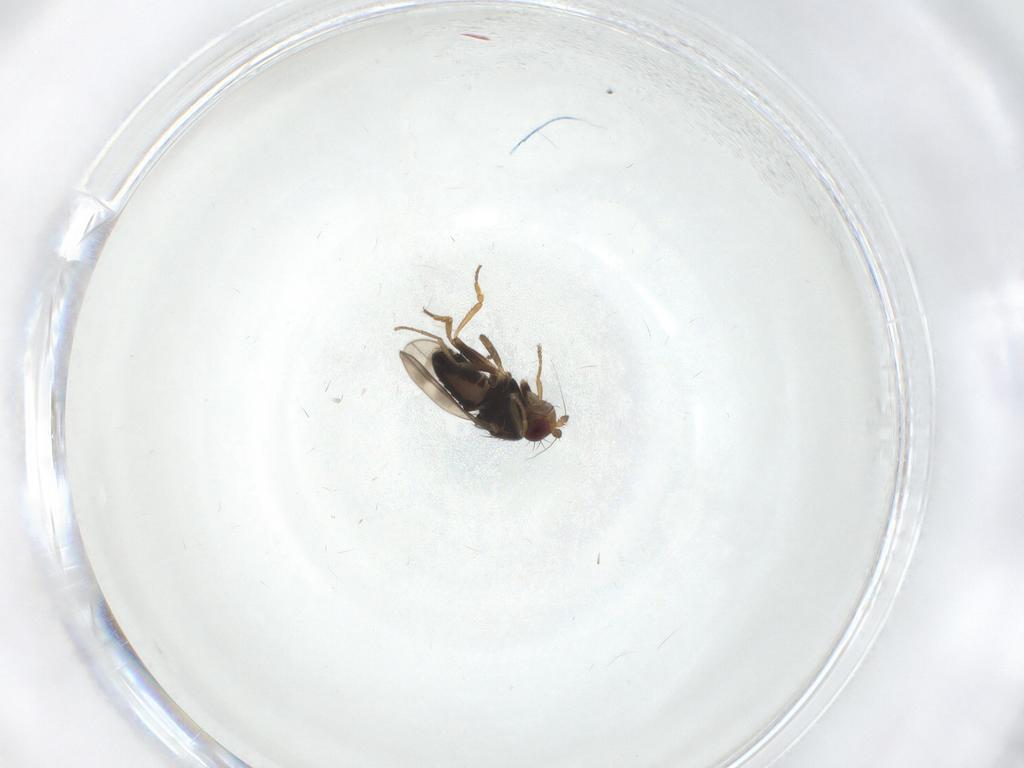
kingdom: Animalia
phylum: Arthropoda
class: Insecta
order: Diptera
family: Sphaeroceridae
